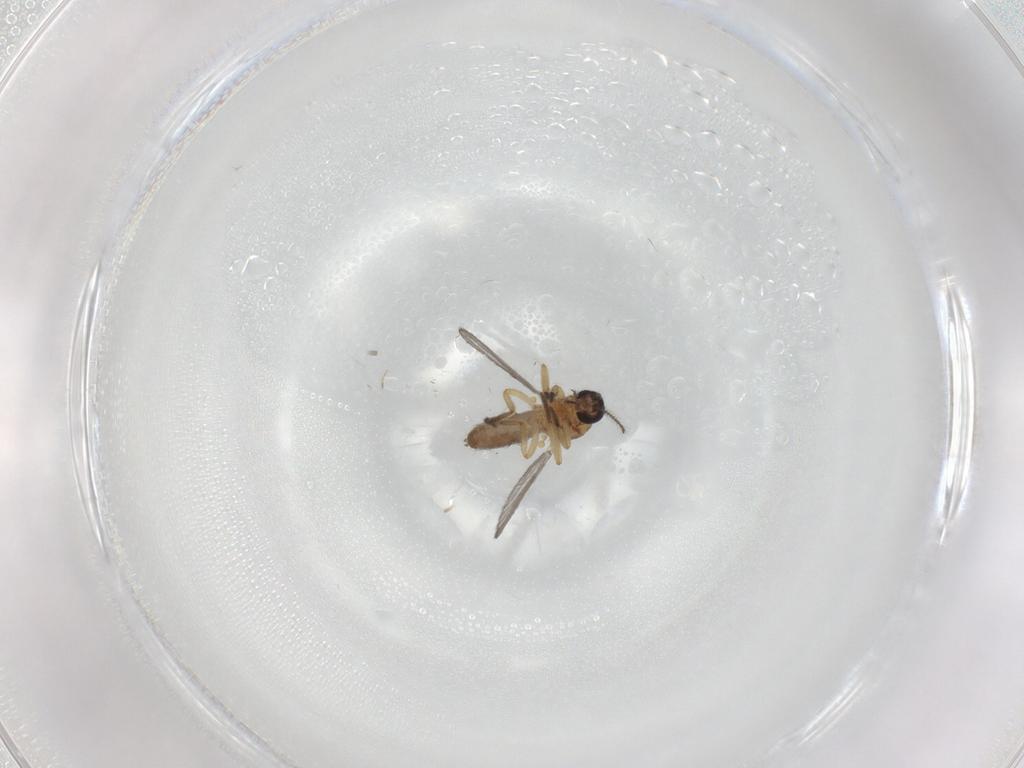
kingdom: Animalia
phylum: Arthropoda
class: Insecta
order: Diptera
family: Ceratopogonidae
